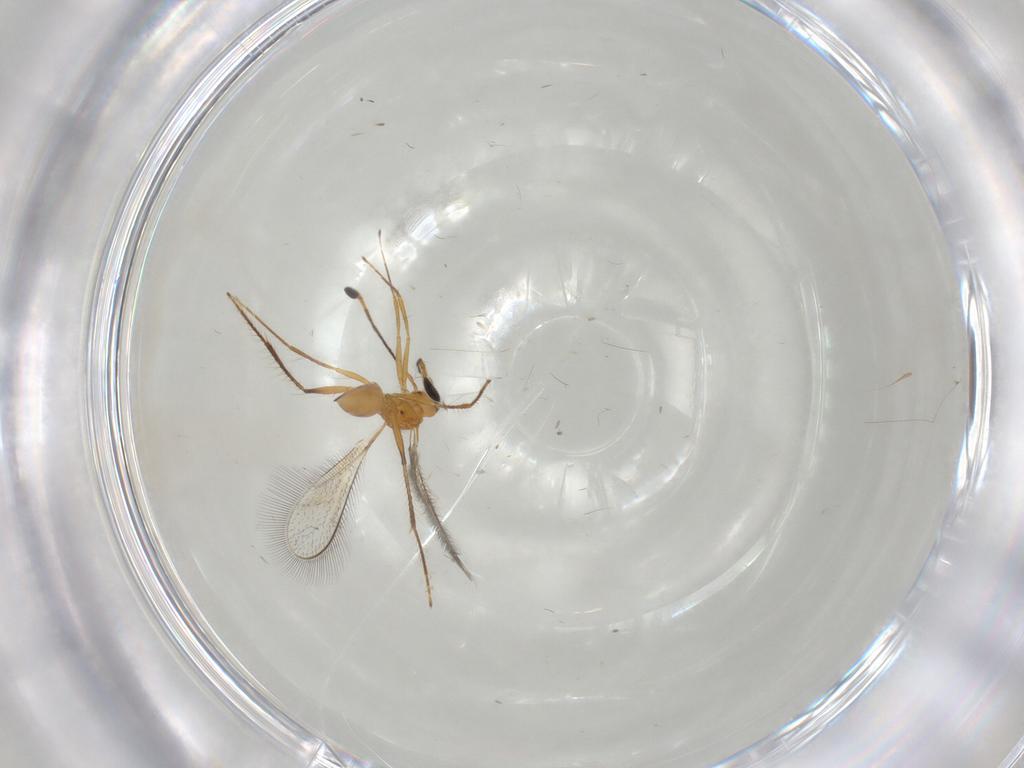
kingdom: Animalia
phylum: Arthropoda
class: Insecta
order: Hymenoptera
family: Mymaridae
